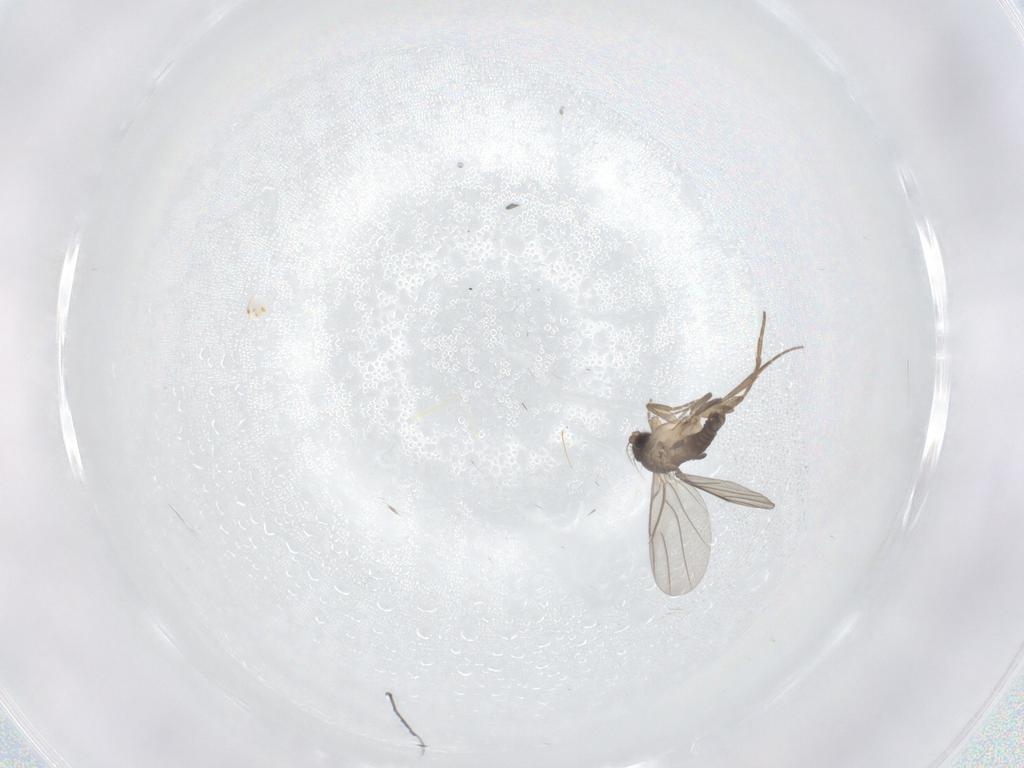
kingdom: Animalia
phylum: Arthropoda
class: Insecta
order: Diptera
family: Phoridae
